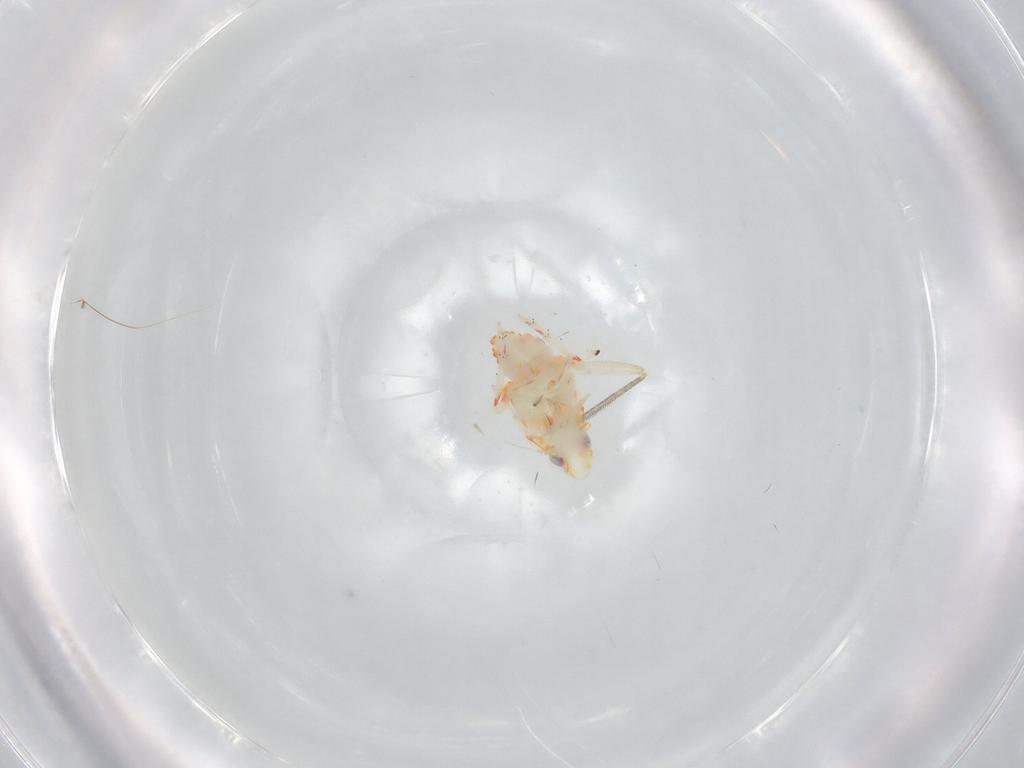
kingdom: Animalia
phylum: Arthropoda
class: Insecta
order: Hemiptera
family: Tropiduchidae
